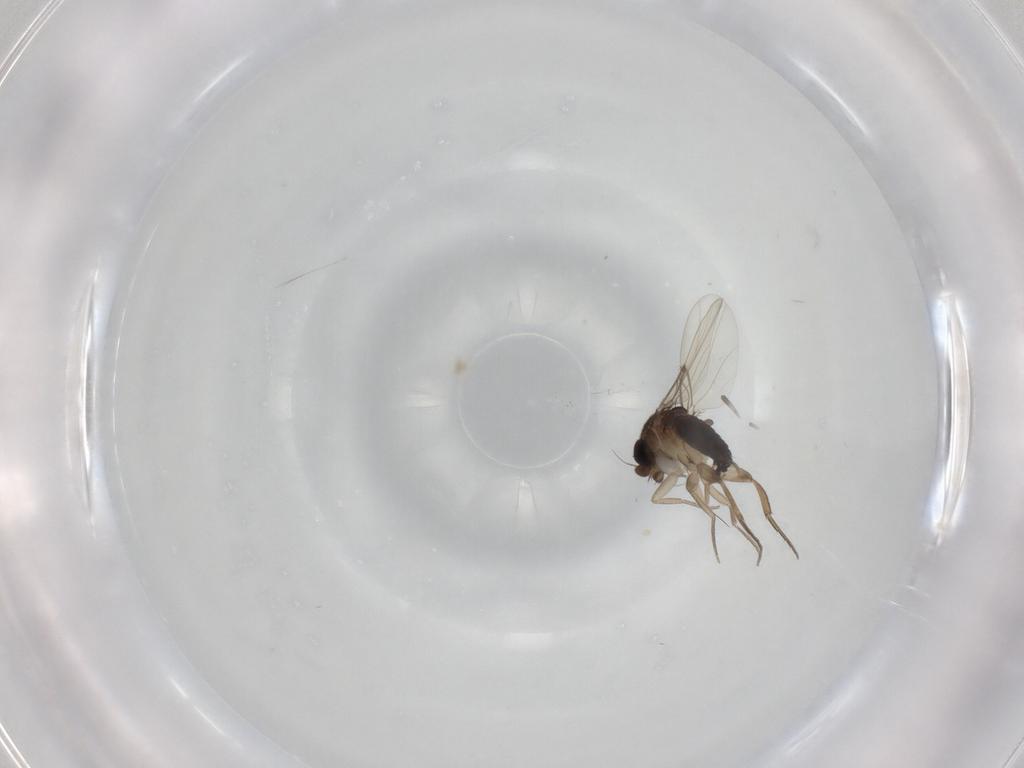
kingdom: Animalia
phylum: Arthropoda
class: Insecta
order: Diptera
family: Phoridae
